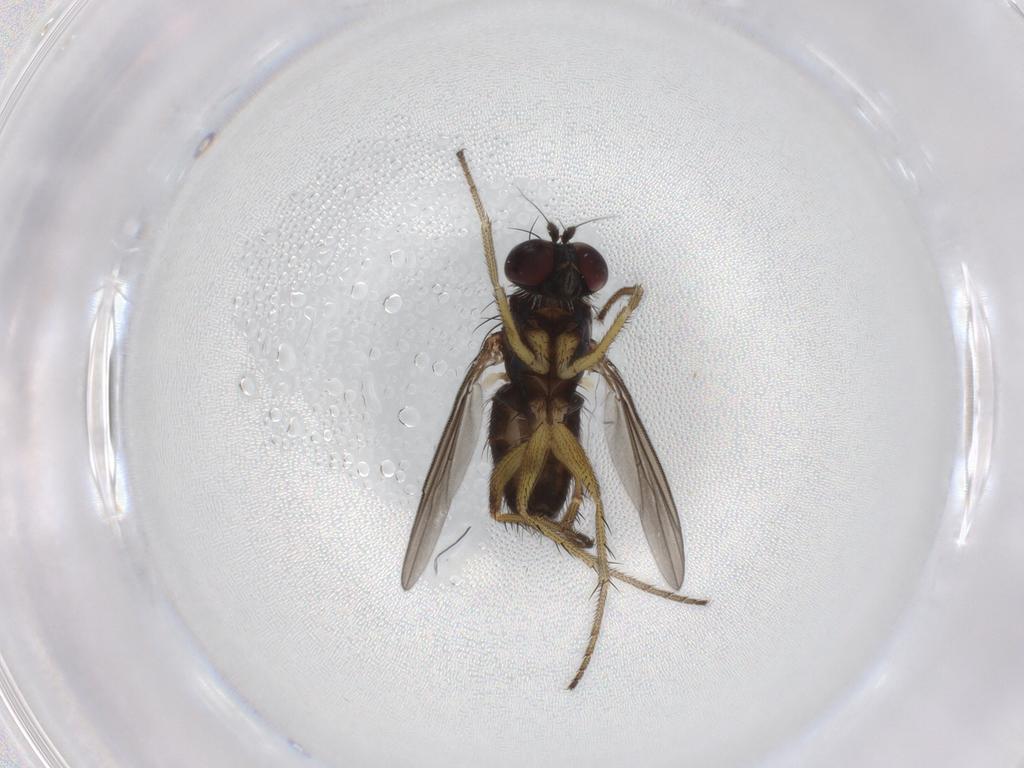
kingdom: Animalia
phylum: Arthropoda
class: Insecta
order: Diptera
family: Dolichopodidae
